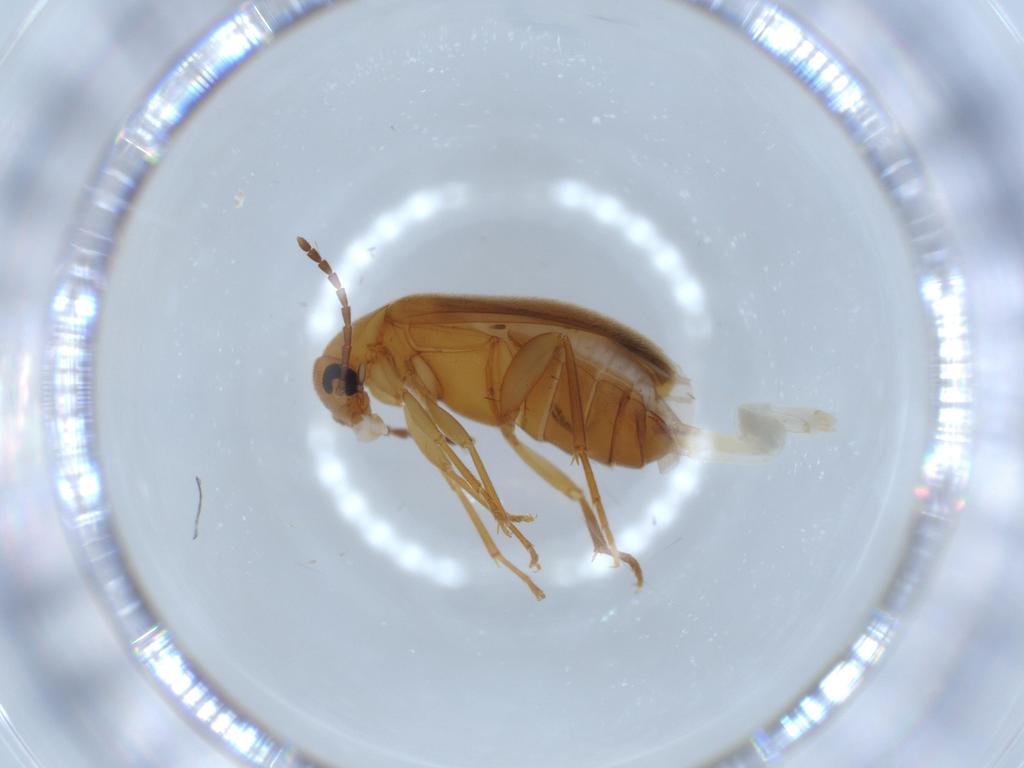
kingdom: Animalia
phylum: Arthropoda
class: Insecta
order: Coleoptera
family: Scraptiidae
